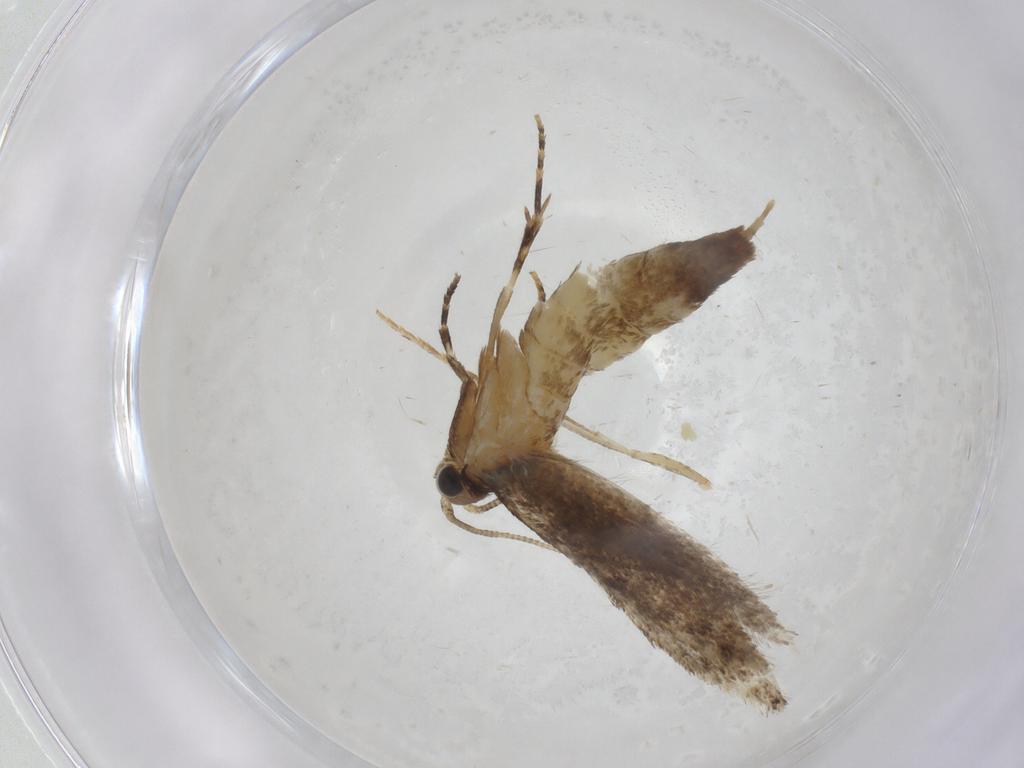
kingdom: Animalia
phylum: Arthropoda
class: Insecta
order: Lepidoptera
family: Tineidae
